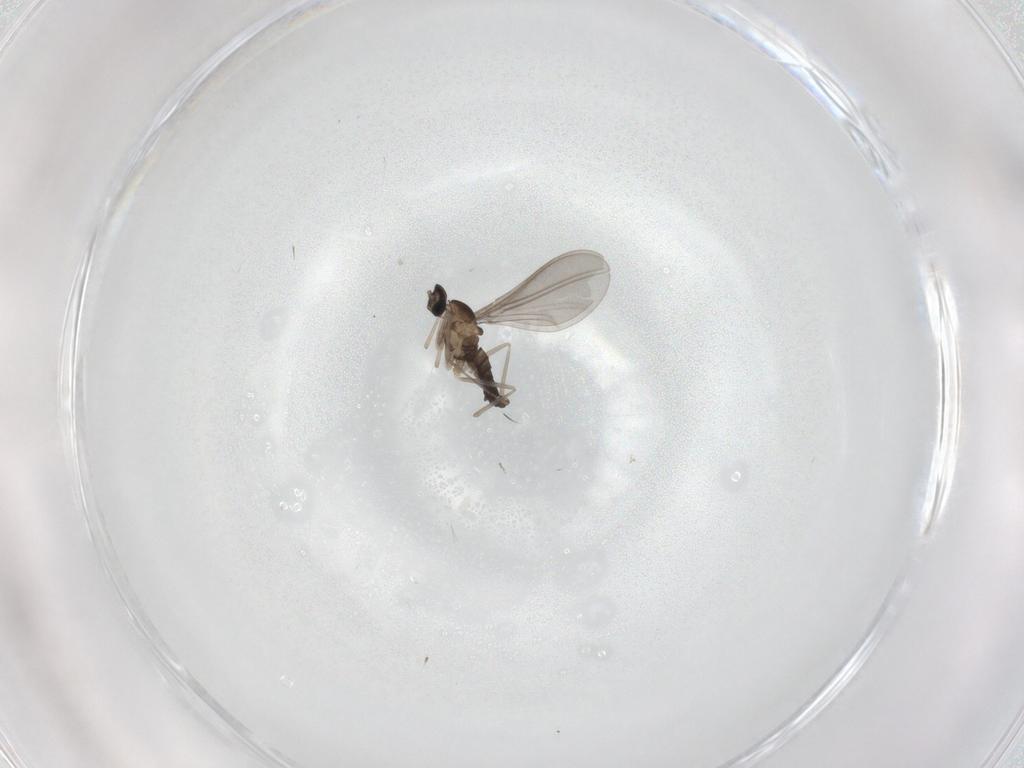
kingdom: Animalia
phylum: Arthropoda
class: Insecta
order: Diptera
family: Cecidomyiidae
